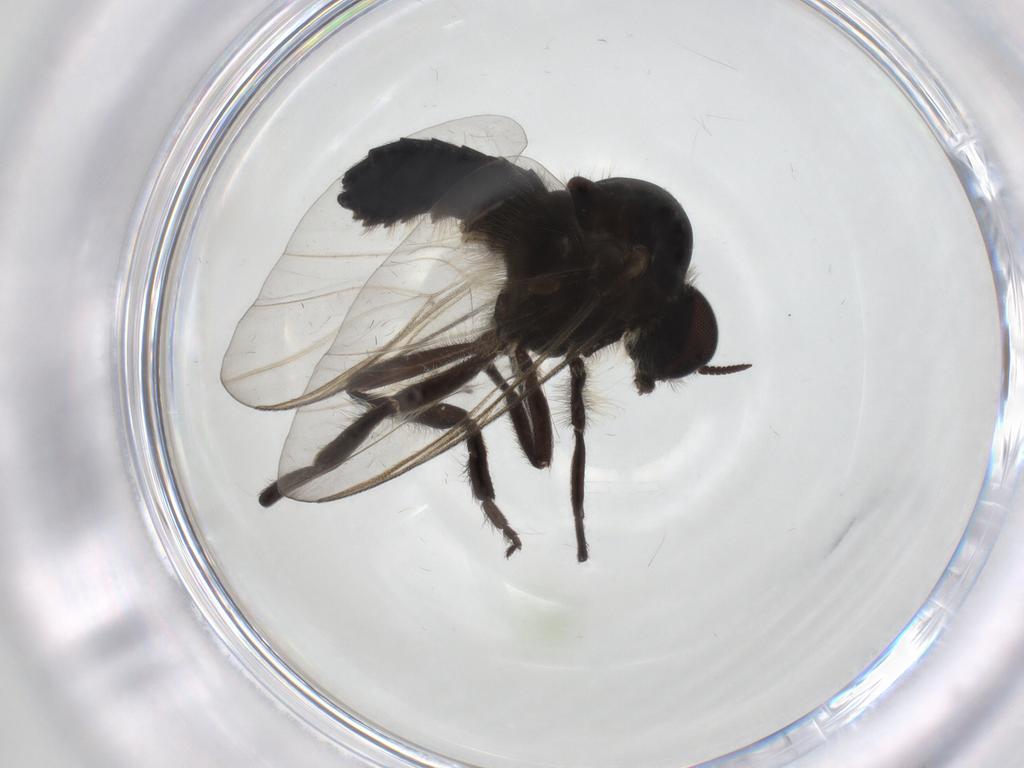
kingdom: Animalia
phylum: Arthropoda
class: Insecta
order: Diptera
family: Simuliidae
